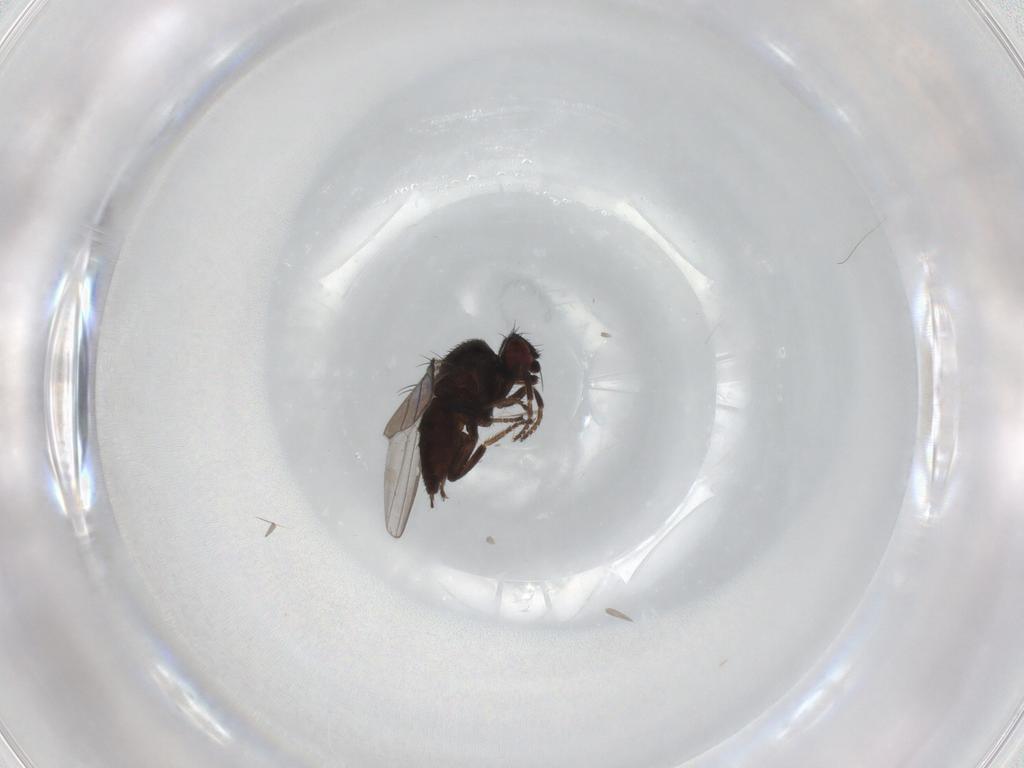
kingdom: Animalia
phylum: Arthropoda
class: Insecta
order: Diptera
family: Milichiidae
